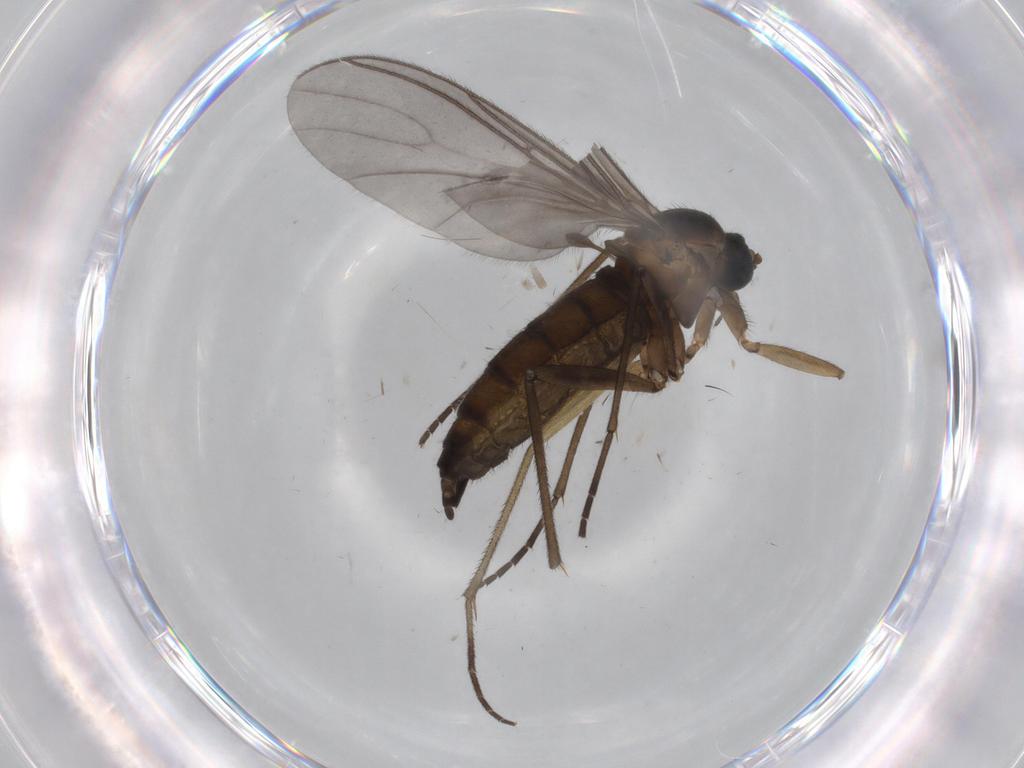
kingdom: Animalia
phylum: Arthropoda
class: Insecta
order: Diptera
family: Sciaridae
